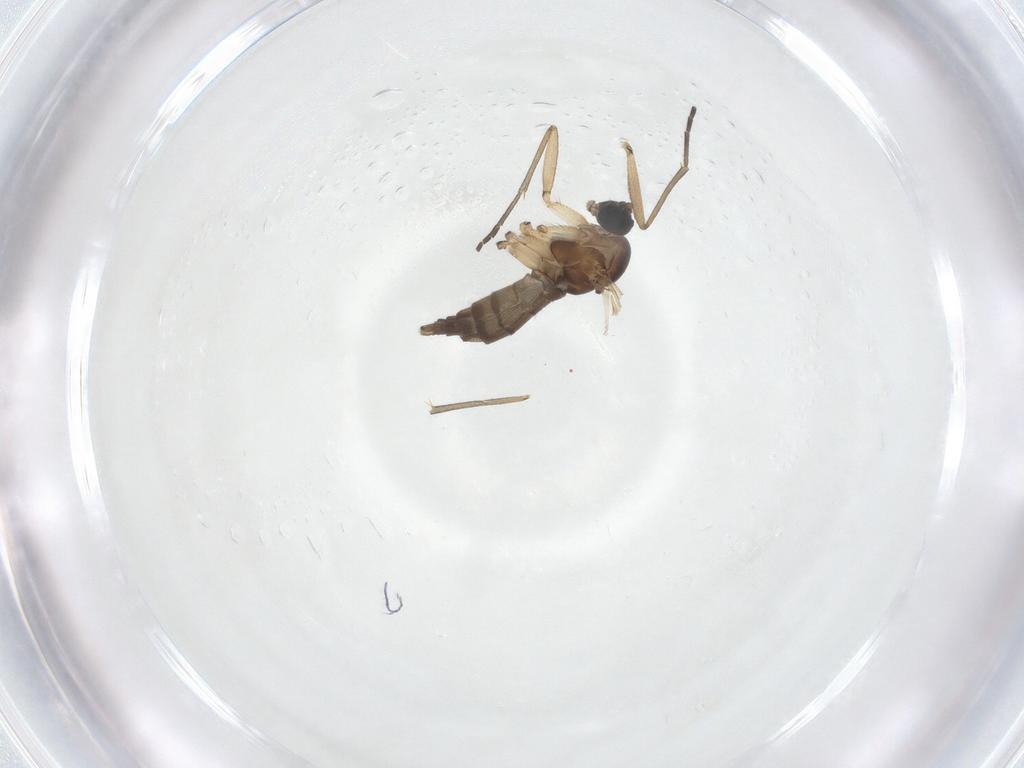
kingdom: Animalia
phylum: Arthropoda
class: Insecta
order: Diptera
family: Sciaridae
